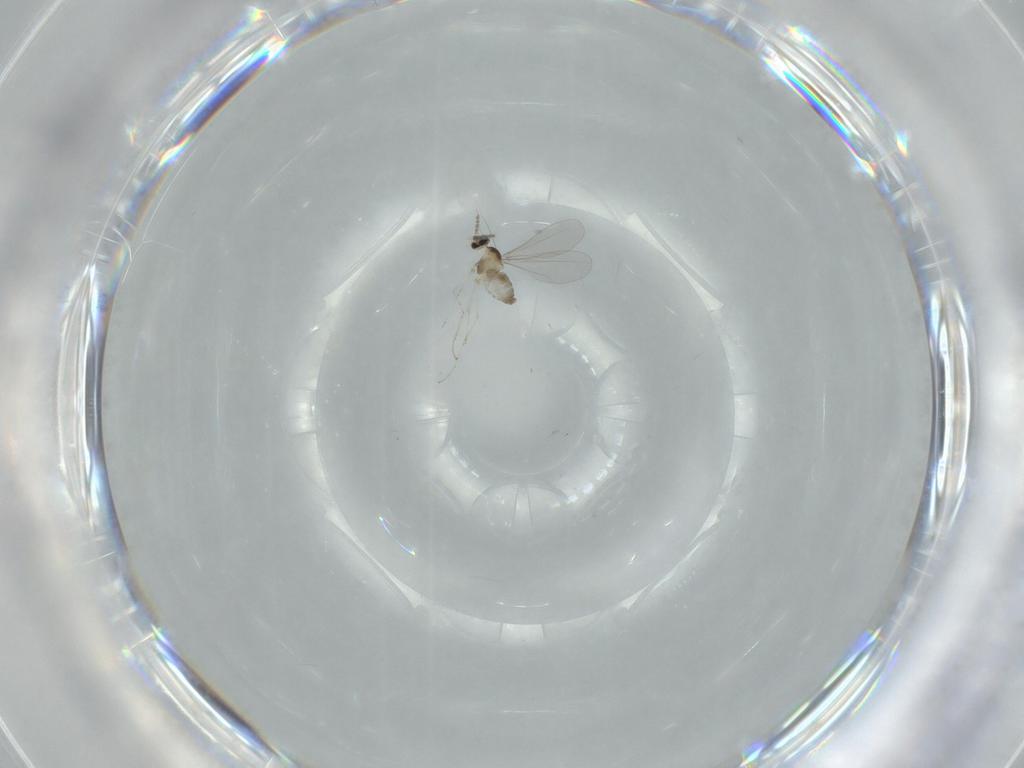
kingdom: Animalia
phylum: Arthropoda
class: Insecta
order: Diptera
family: Cecidomyiidae
